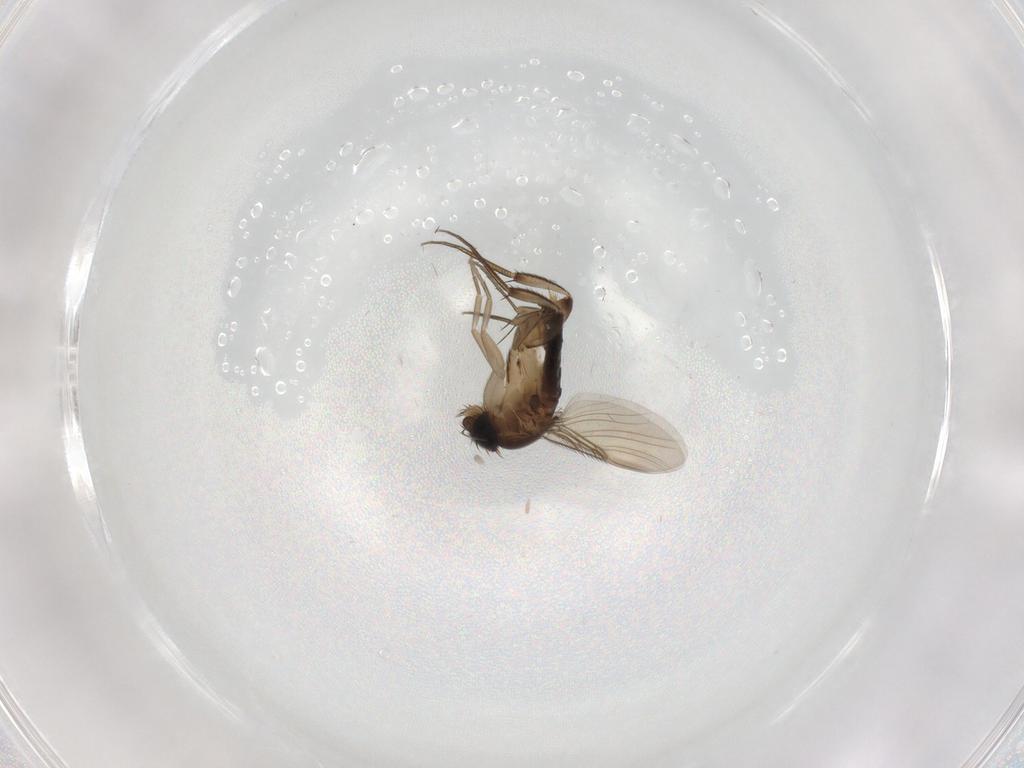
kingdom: Animalia
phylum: Arthropoda
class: Insecta
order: Diptera
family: Phoridae
